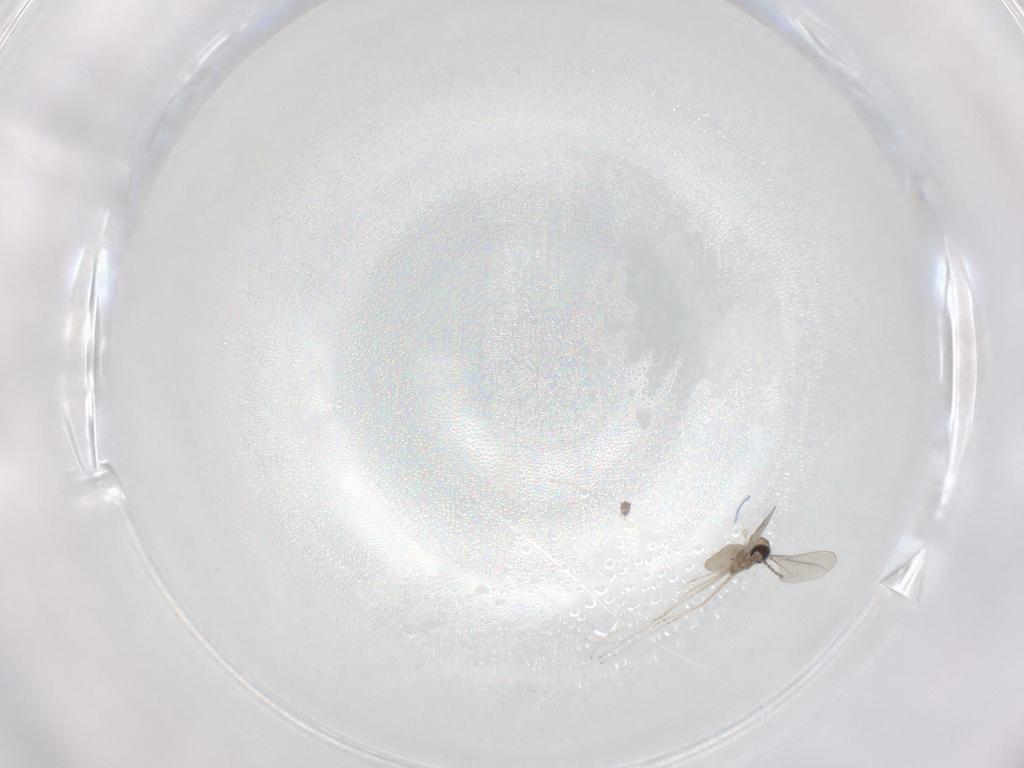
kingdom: Animalia
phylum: Arthropoda
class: Insecta
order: Diptera
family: Cecidomyiidae
